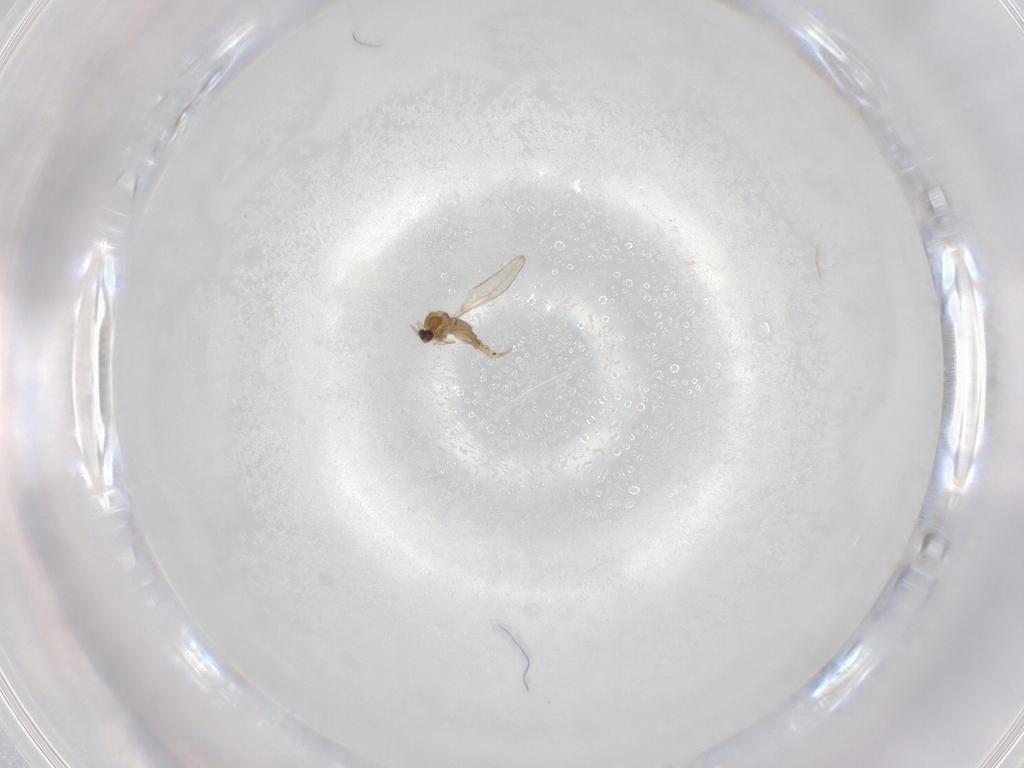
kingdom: Animalia
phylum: Arthropoda
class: Insecta
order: Diptera
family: Cecidomyiidae
